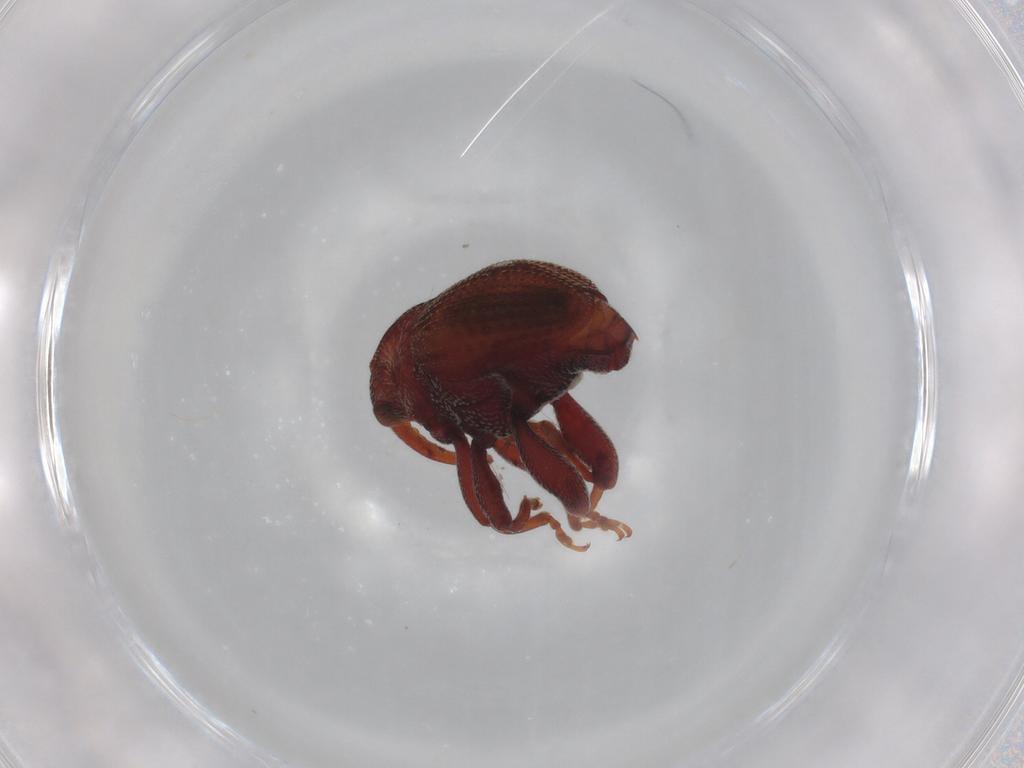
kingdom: Animalia
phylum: Arthropoda
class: Insecta
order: Coleoptera
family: Curculionidae
